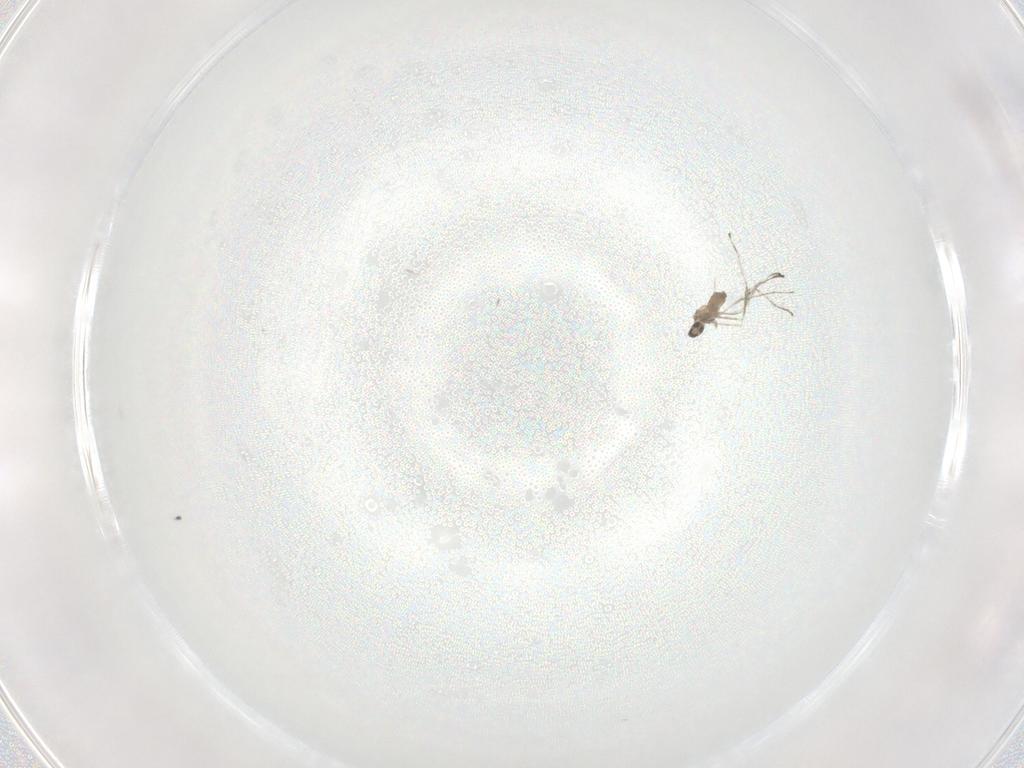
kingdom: Animalia
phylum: Arthropoda
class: Insecta
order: Diptera
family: Cecidomyiidae
